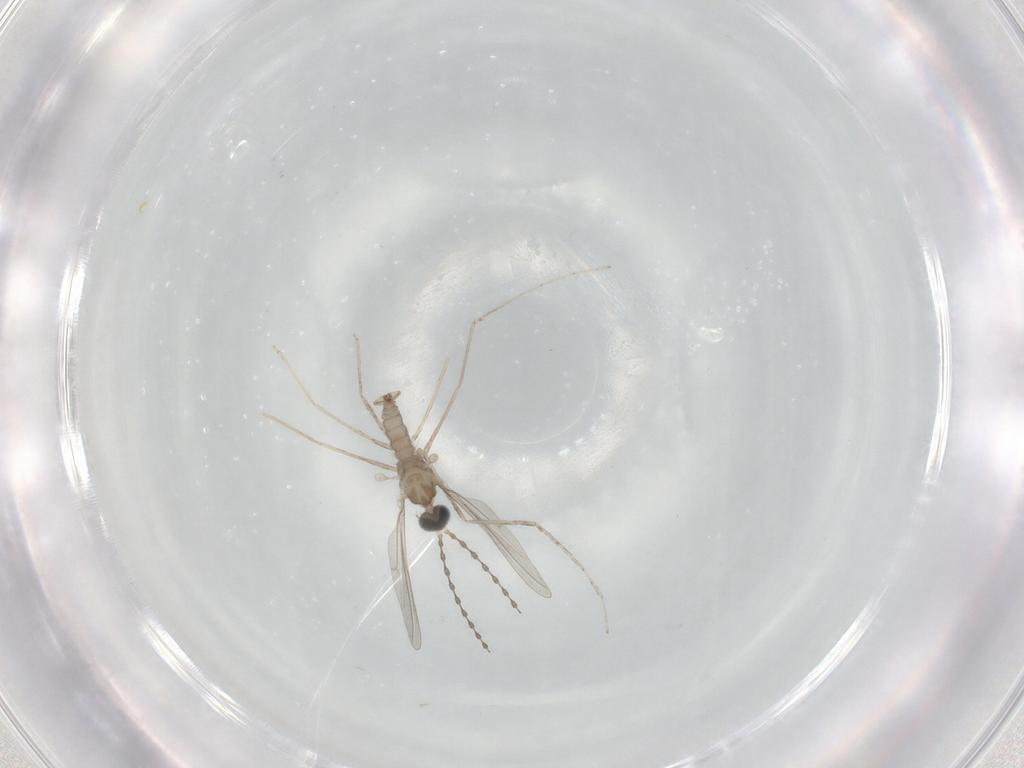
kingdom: Animalia
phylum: Arthropoda
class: Insecta
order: Diptera
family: Cecidomyiidae
